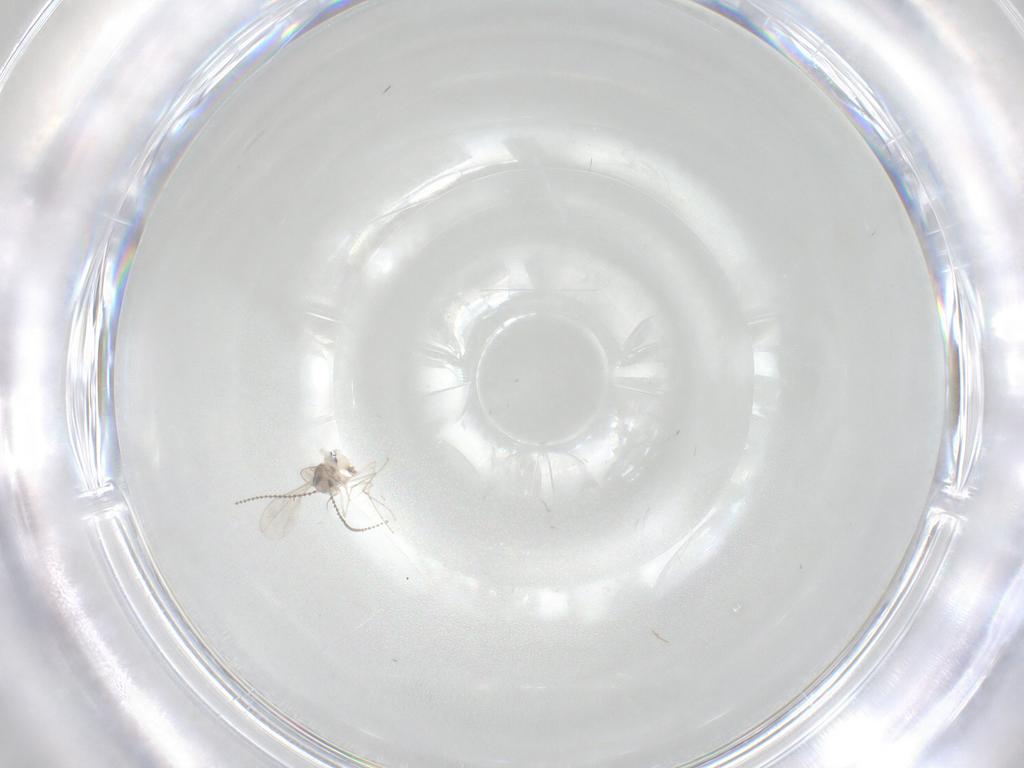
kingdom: Animalia
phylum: Arthropoda
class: Insecta
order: Diptera
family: Cecidomyiidae
